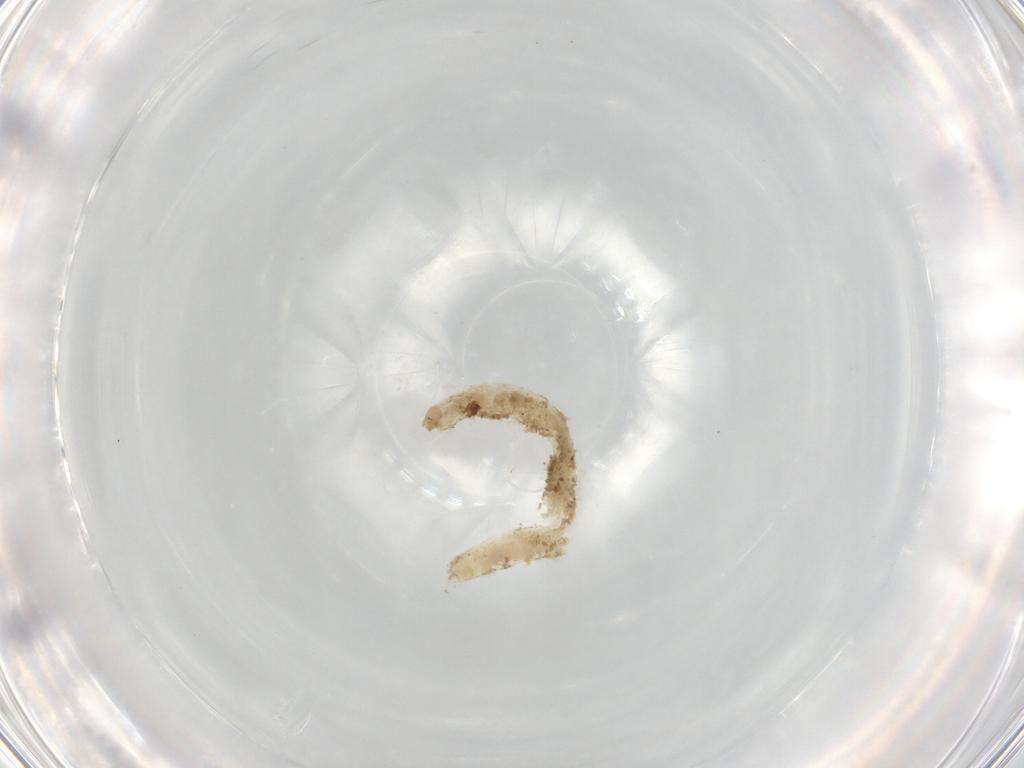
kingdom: Animalia
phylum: Arthropoda
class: Insecta
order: Diptera
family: Chironomidae
